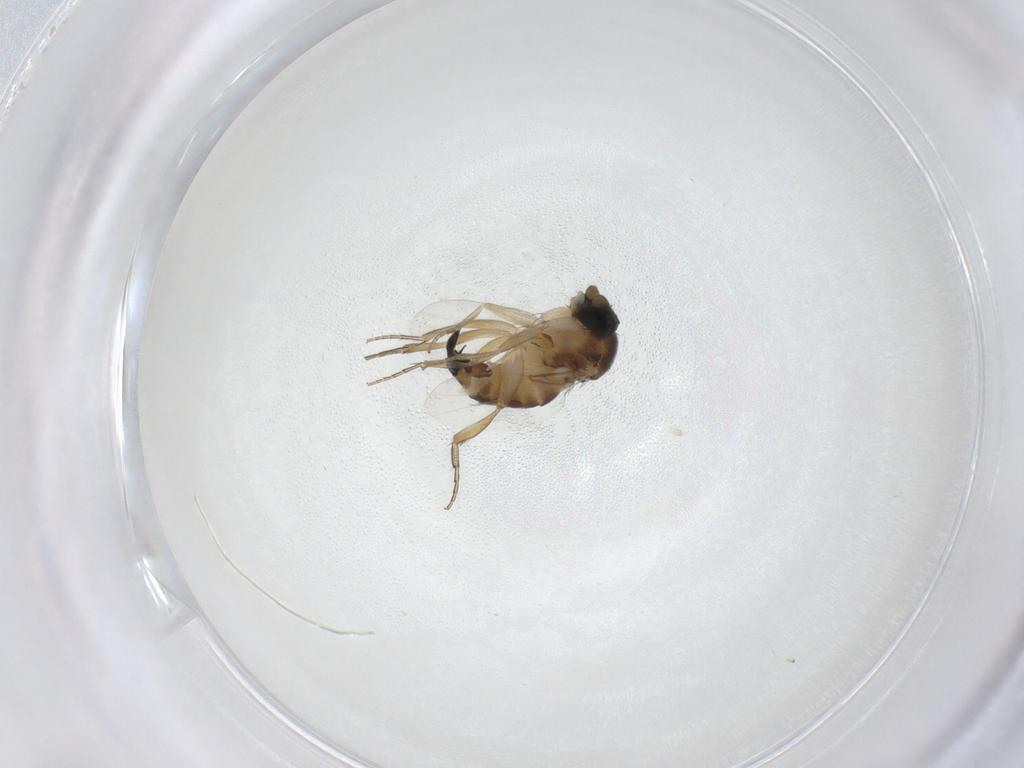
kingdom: Animalia
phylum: Arthropoda
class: Insecta
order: Diptera
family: Phoridae
